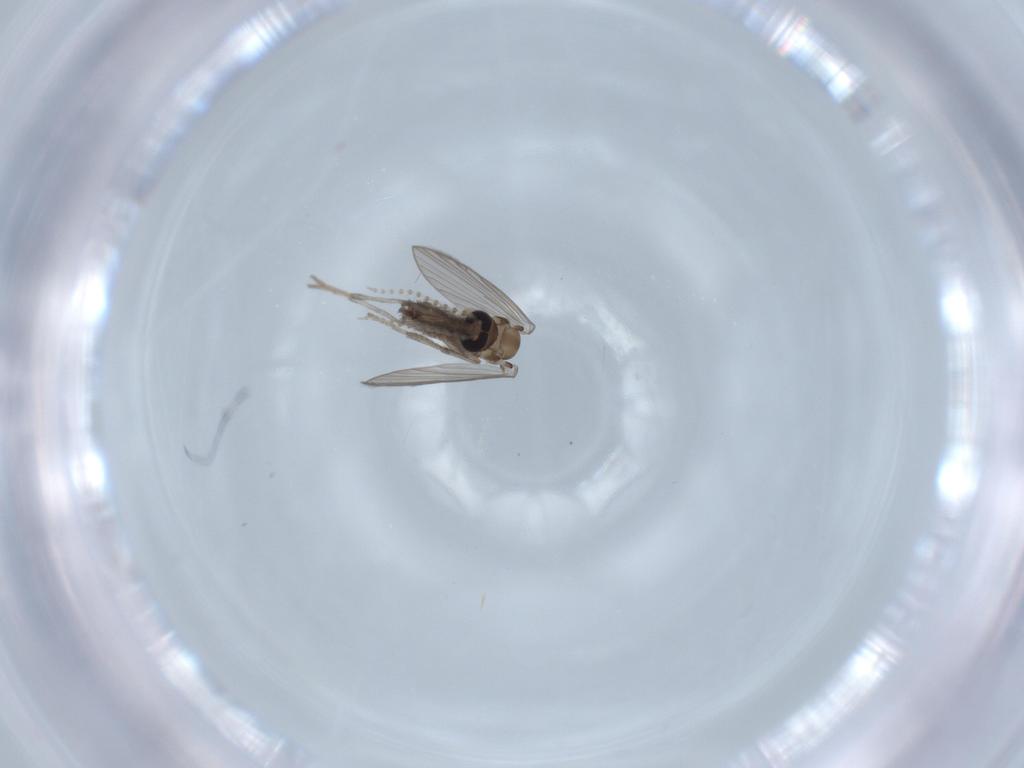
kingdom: Animalia
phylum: Arthropoda
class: Insecta
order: Diptera
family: Psychodidae
